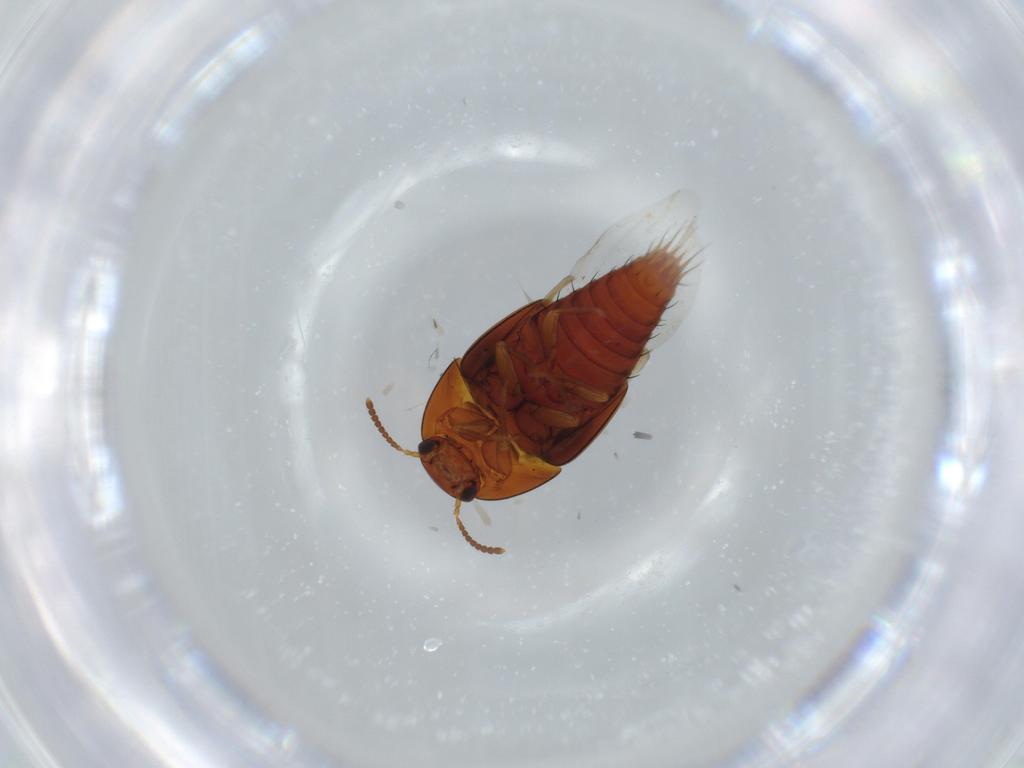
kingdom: Animalia
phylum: Arthropoda
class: Insecta
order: Coleoptera
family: Staphylinidae
